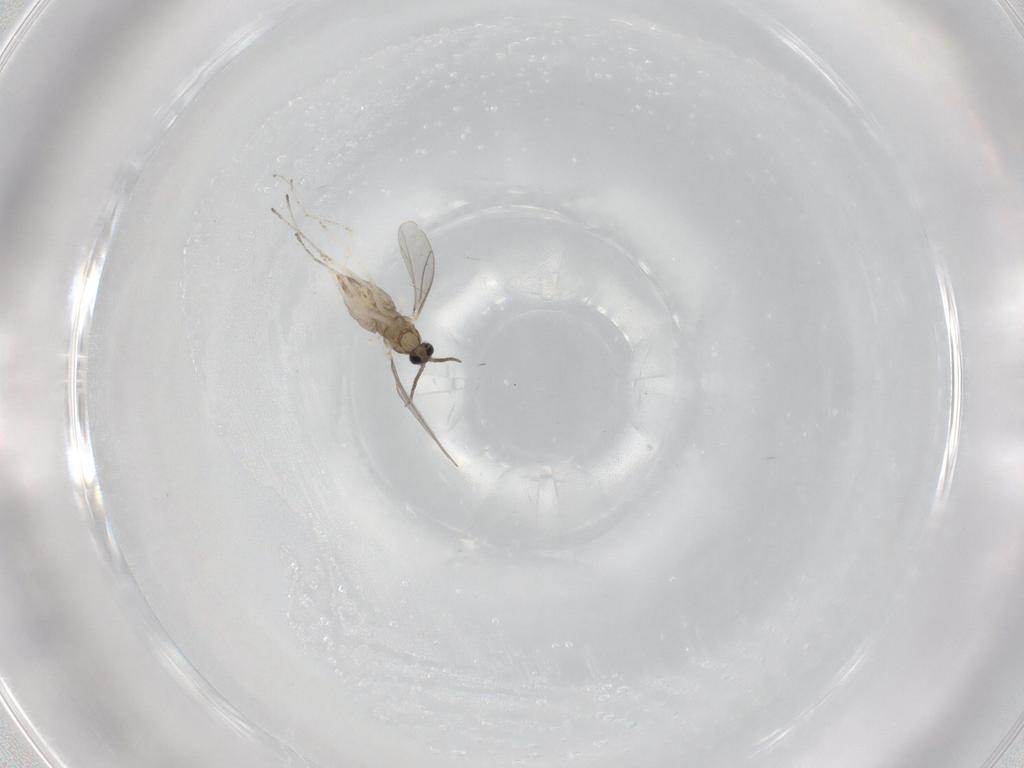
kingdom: Animalia
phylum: Arthropoda
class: Insecta
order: Diptera
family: Cecidomyiidae
